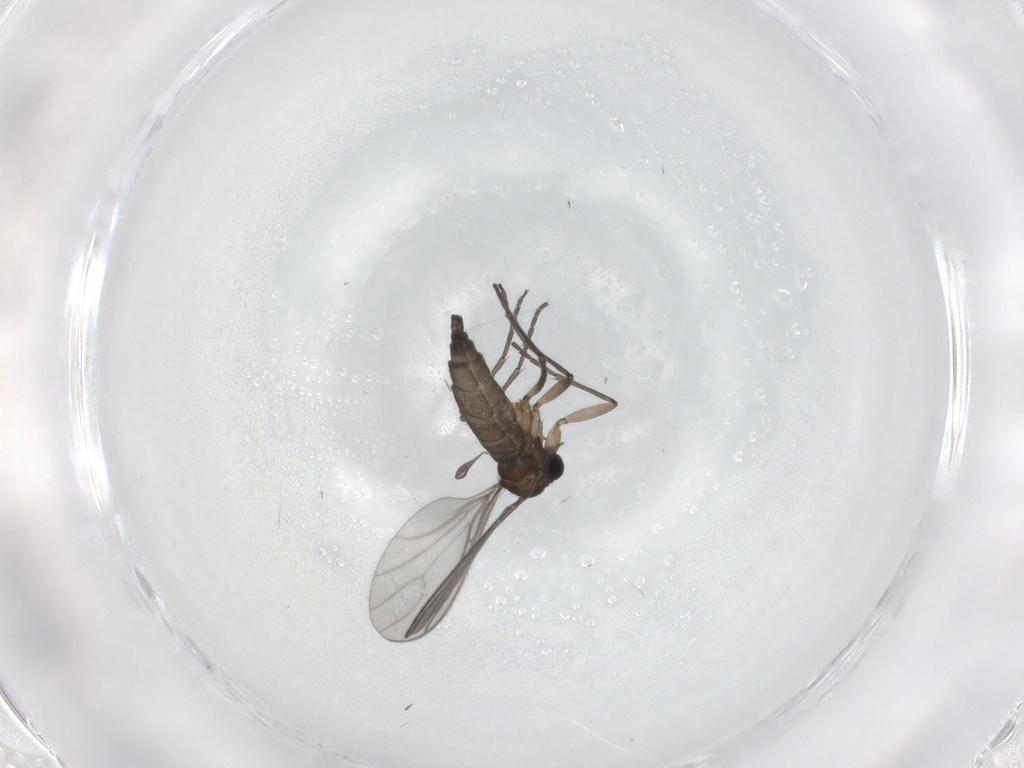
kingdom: Animalia
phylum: Arthropoda
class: Insecta
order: Diptera
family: Sciaridae
